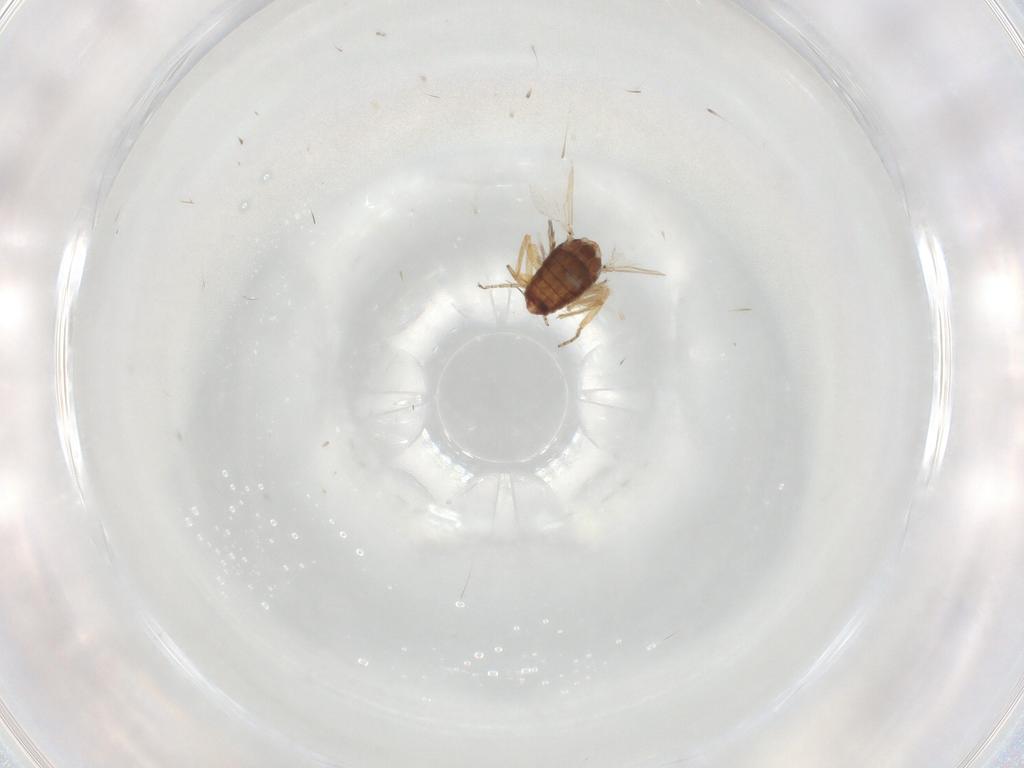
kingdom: Animalia
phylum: Arthropoda
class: Insecta
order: Diptera
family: Ceratopogonidae
